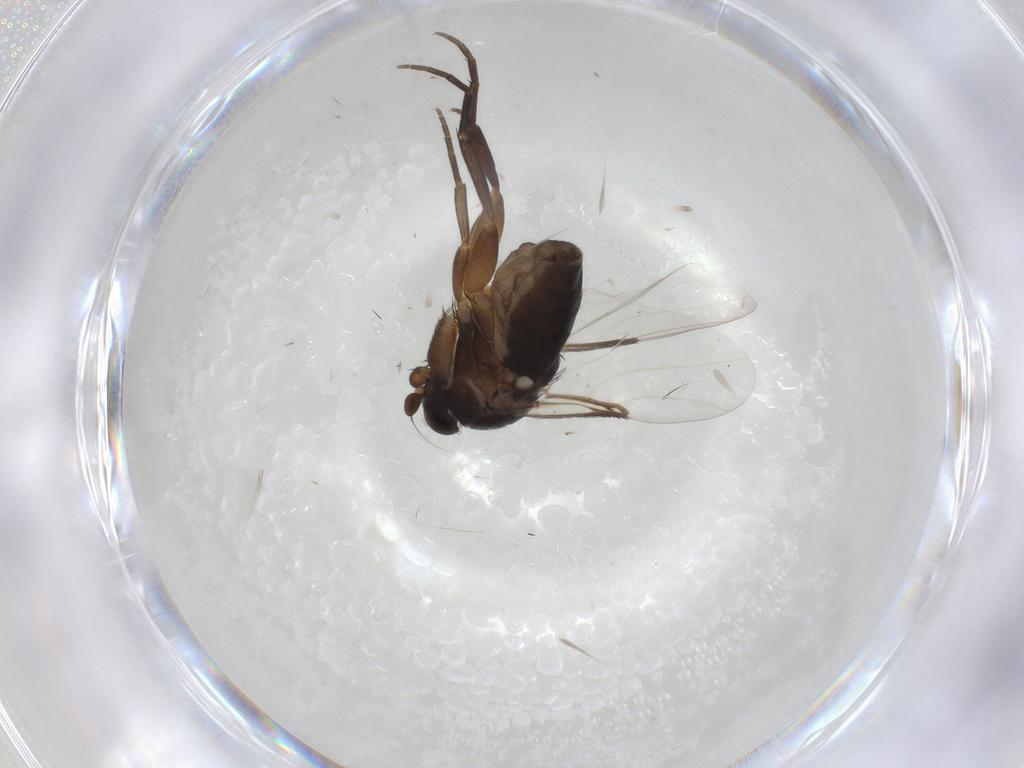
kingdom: Animalia
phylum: Arthropoda
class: Insecta
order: Diptera
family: Phoridae
